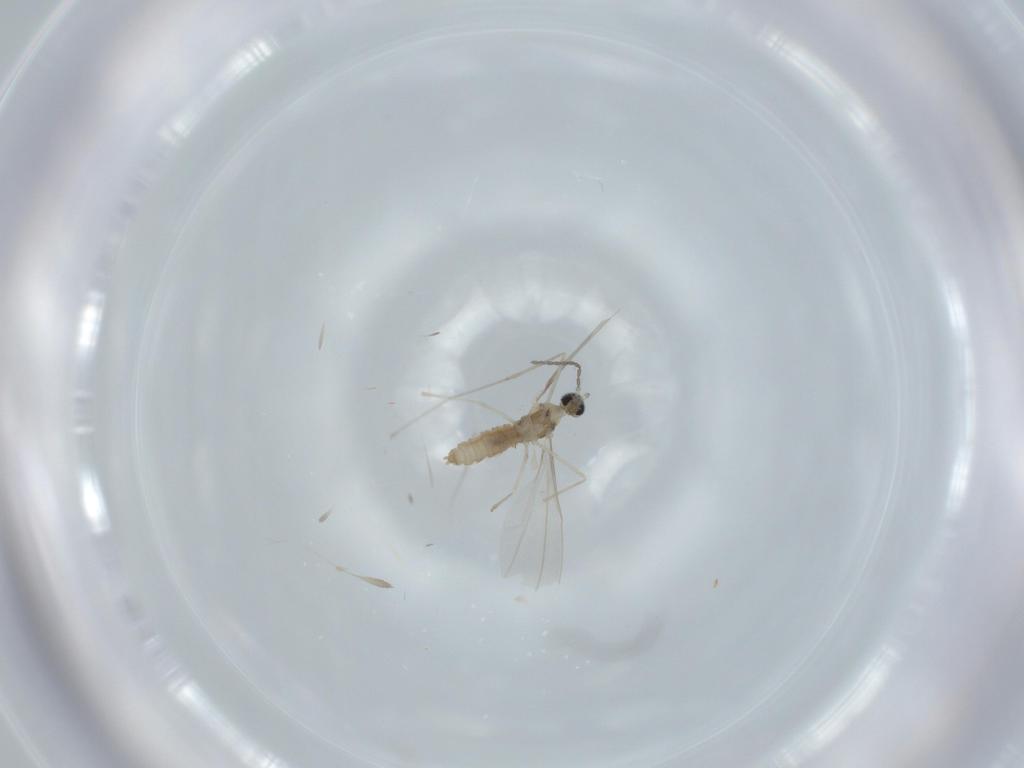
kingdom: Animalia
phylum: Arthropoda
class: Insecta
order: Diptera
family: Cecidomyiidae
